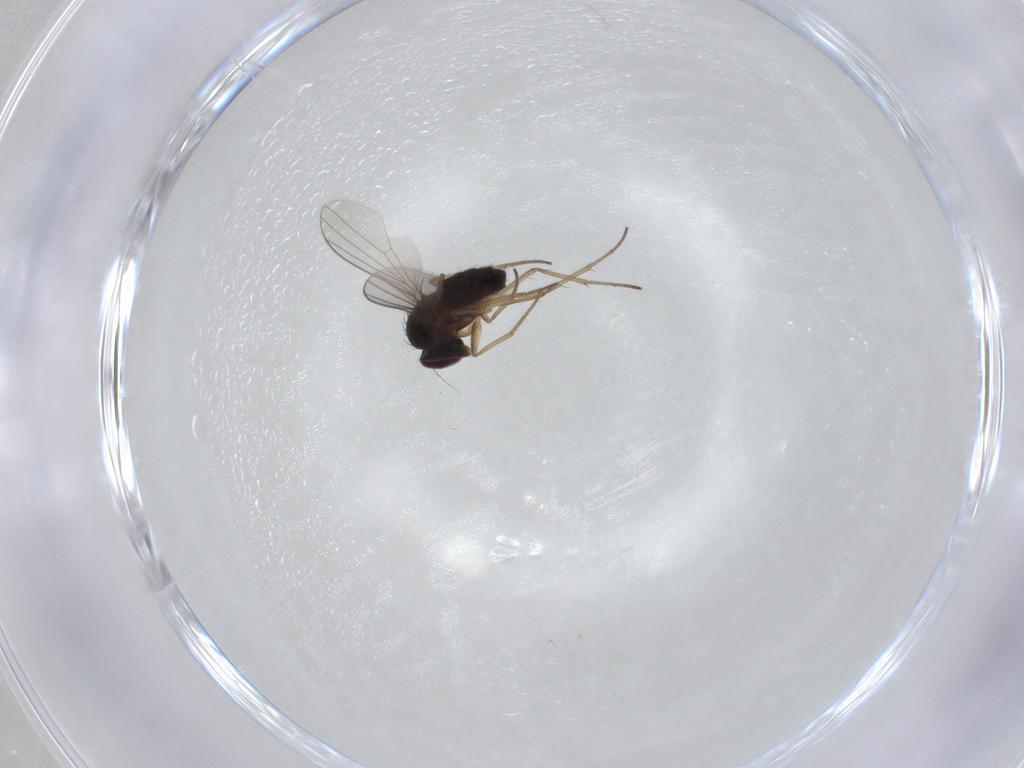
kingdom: Animalia
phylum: Arthropoda
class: Insecta
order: Diptera
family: Dolichopodidae
